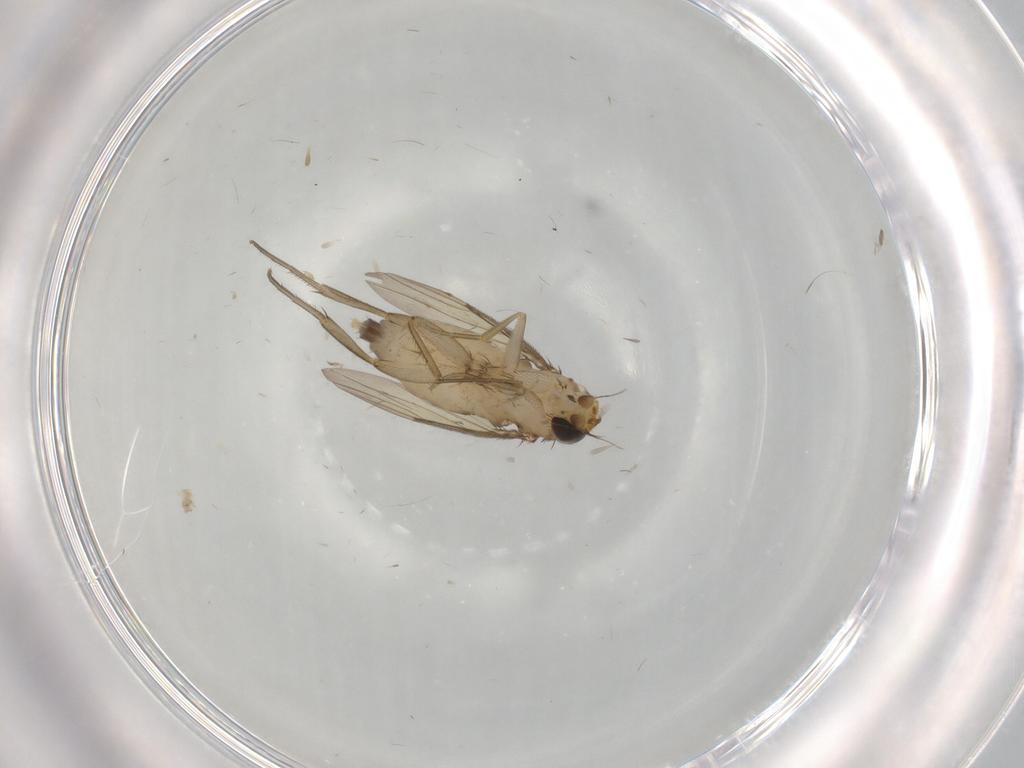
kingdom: Animalia
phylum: Arthropoda
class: Insecta
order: Diptera
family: Phoridae
